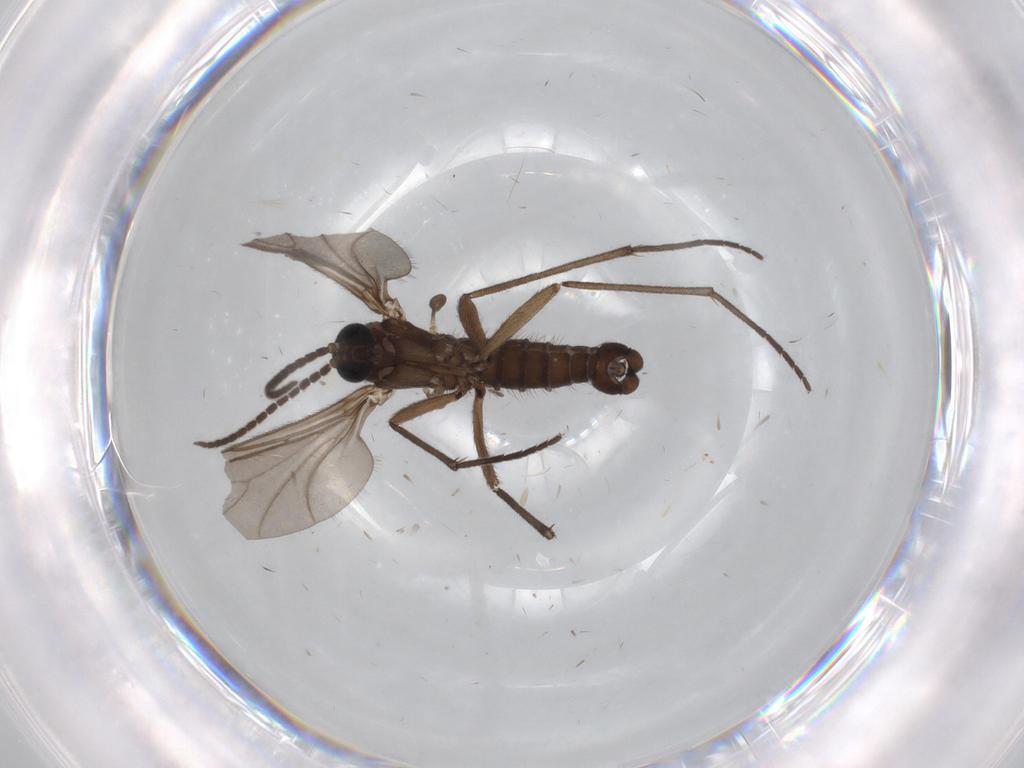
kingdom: Animalia
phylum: Arthropoda
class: Insecta
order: Diptera
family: Sciaridae
